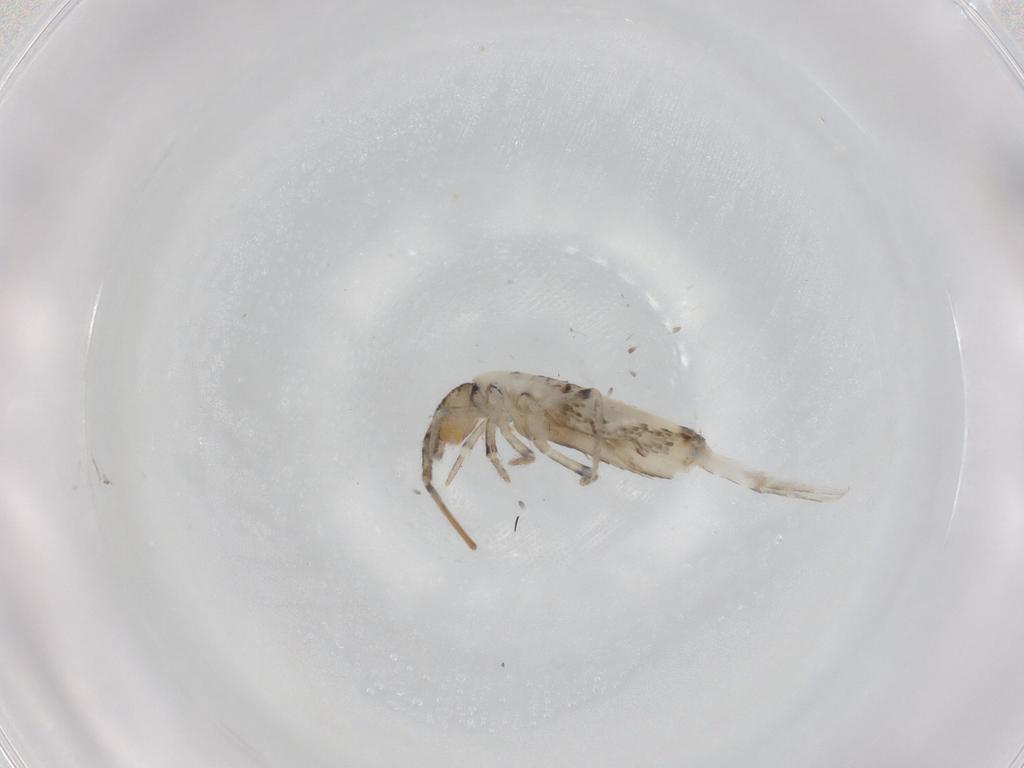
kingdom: Animalia
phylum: Arthropoda
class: Collembola
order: Entomobryomorpha
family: Entomobryidae
